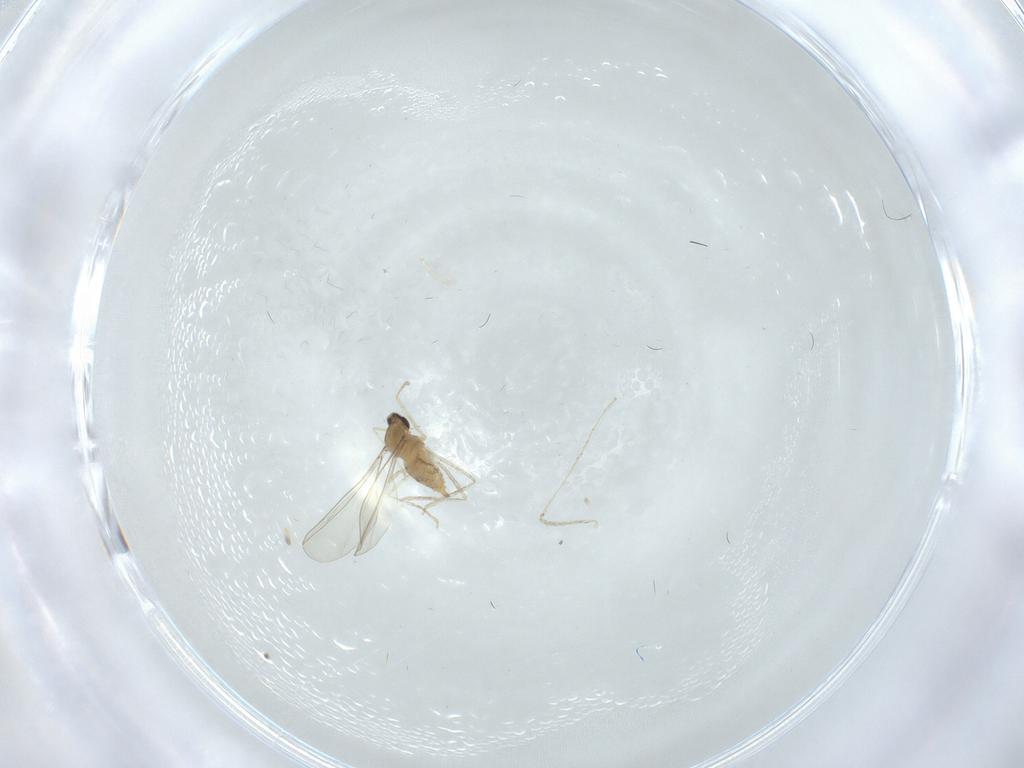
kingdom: Animalia
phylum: Arthropoda
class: Insecta
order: Diptera
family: Cecidomyiidae
